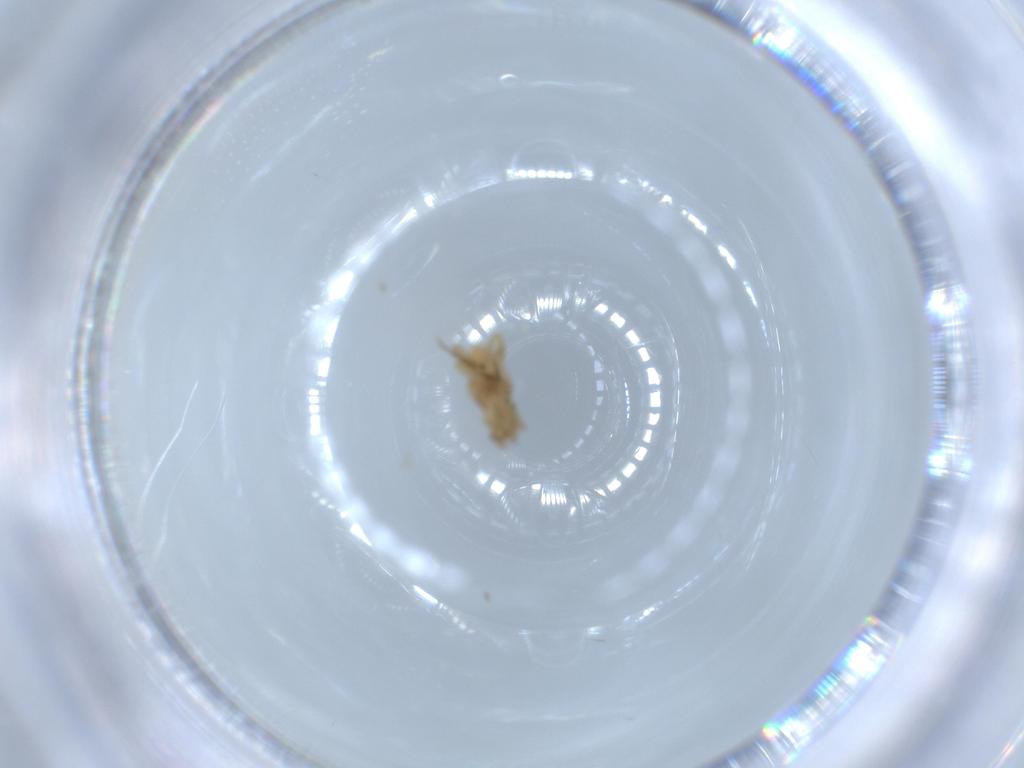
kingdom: Animalia
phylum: Arthropoda
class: Insecta
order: Diptera
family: Phoridae
